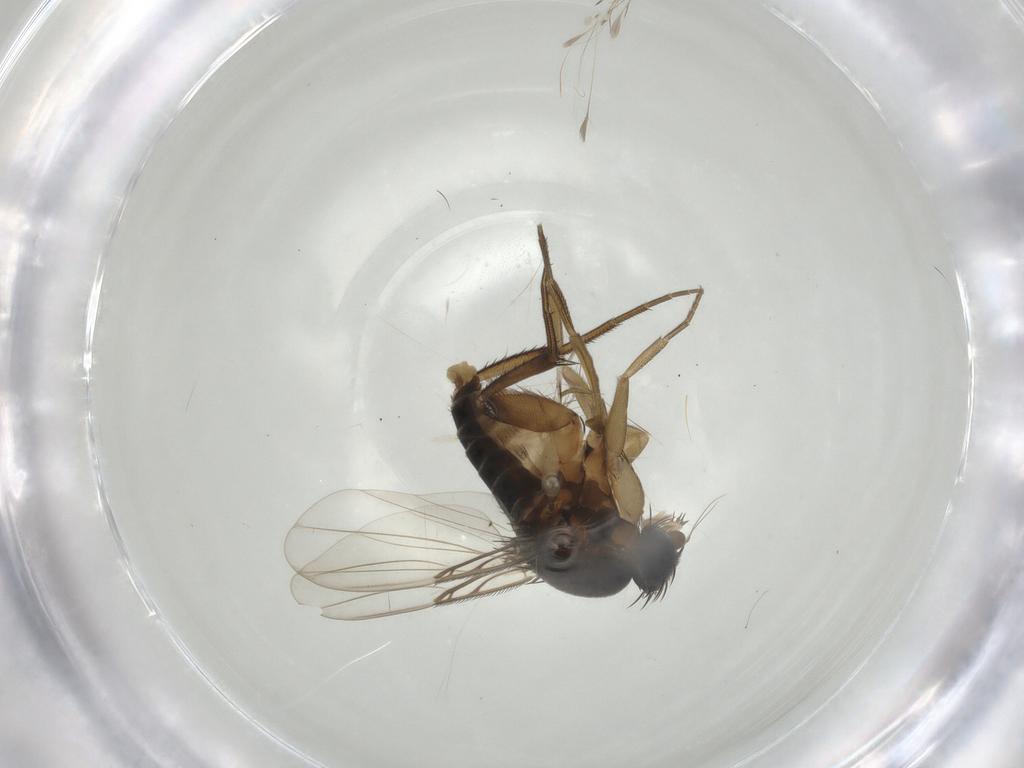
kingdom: Animalia
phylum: Arthropoda
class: Insecta
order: Diptera
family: Phoridae
